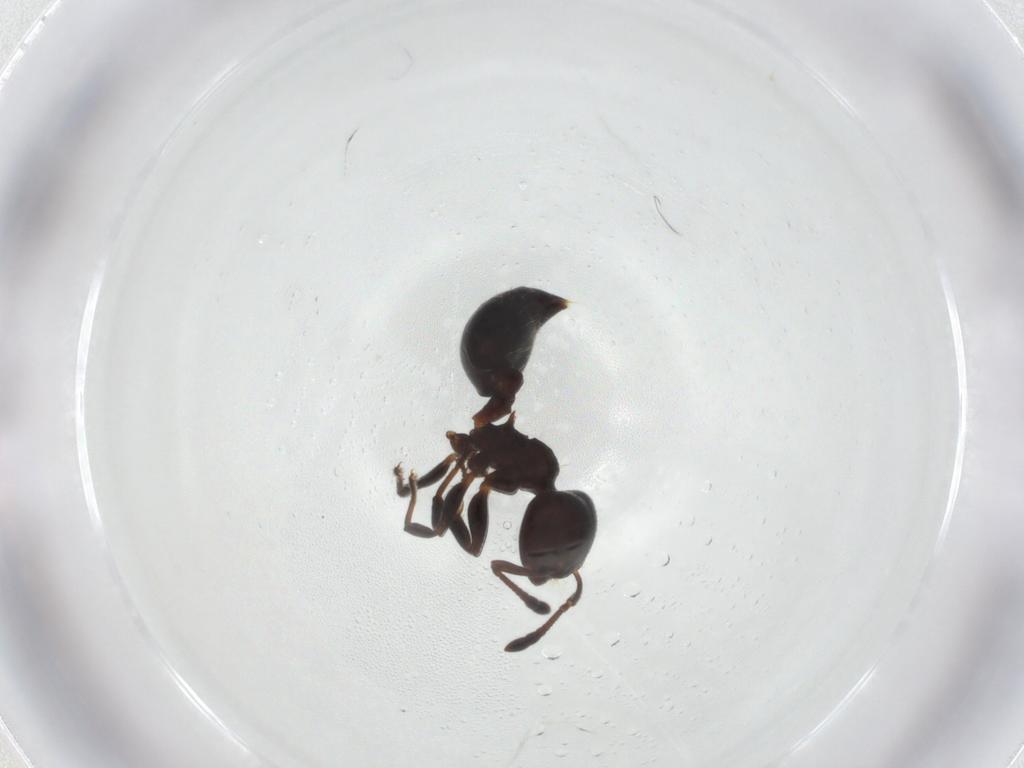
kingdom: Animalia
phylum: Arthropoda
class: Insecta
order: Hymenoptera
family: Formicidae
